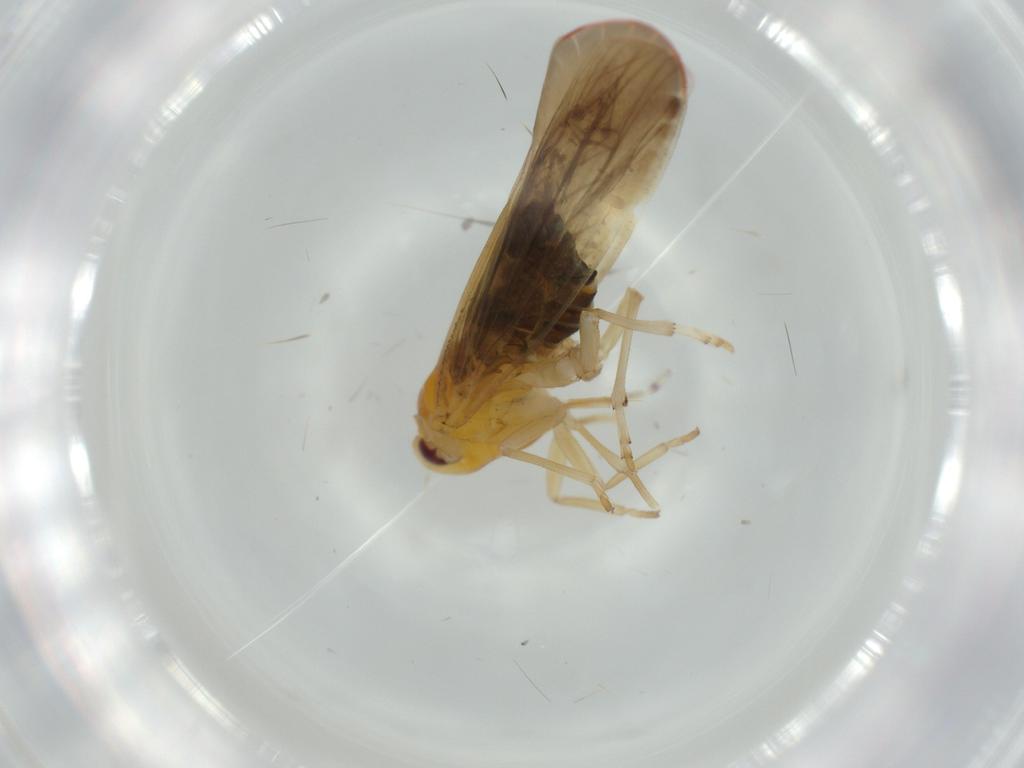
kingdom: Animalia
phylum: Arthropoda
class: Insecta
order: Hemiptera
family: Derbidae
